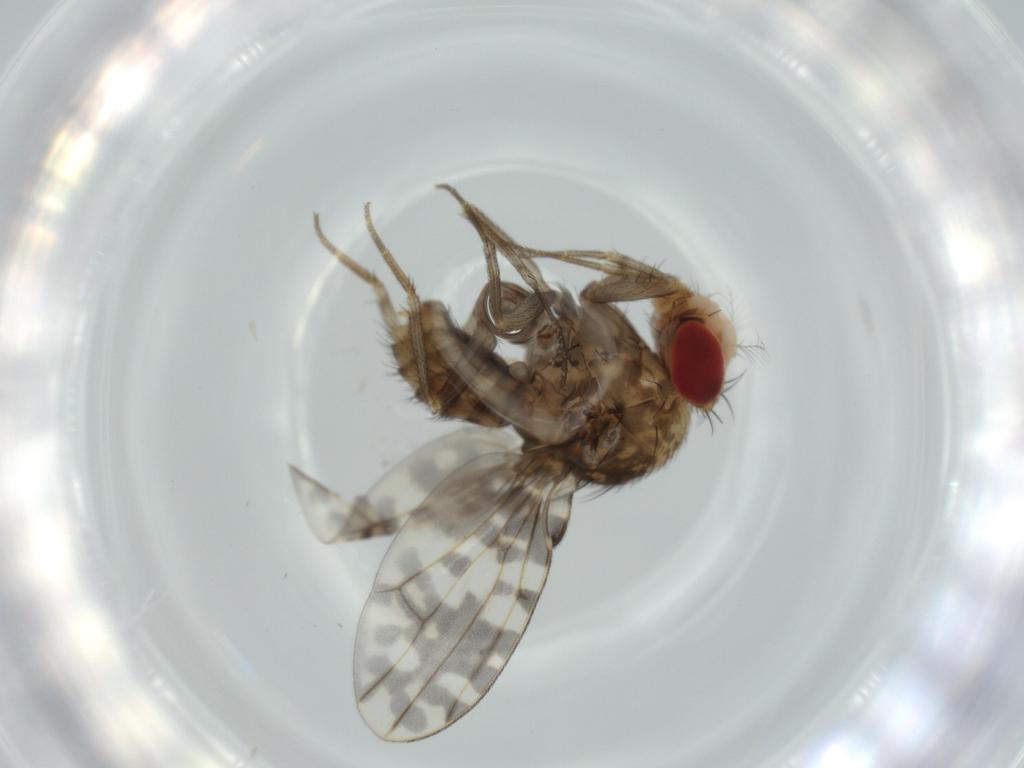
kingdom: Animalia
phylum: Arthropoda
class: Insecta
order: Diptera
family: Drosophilidae
